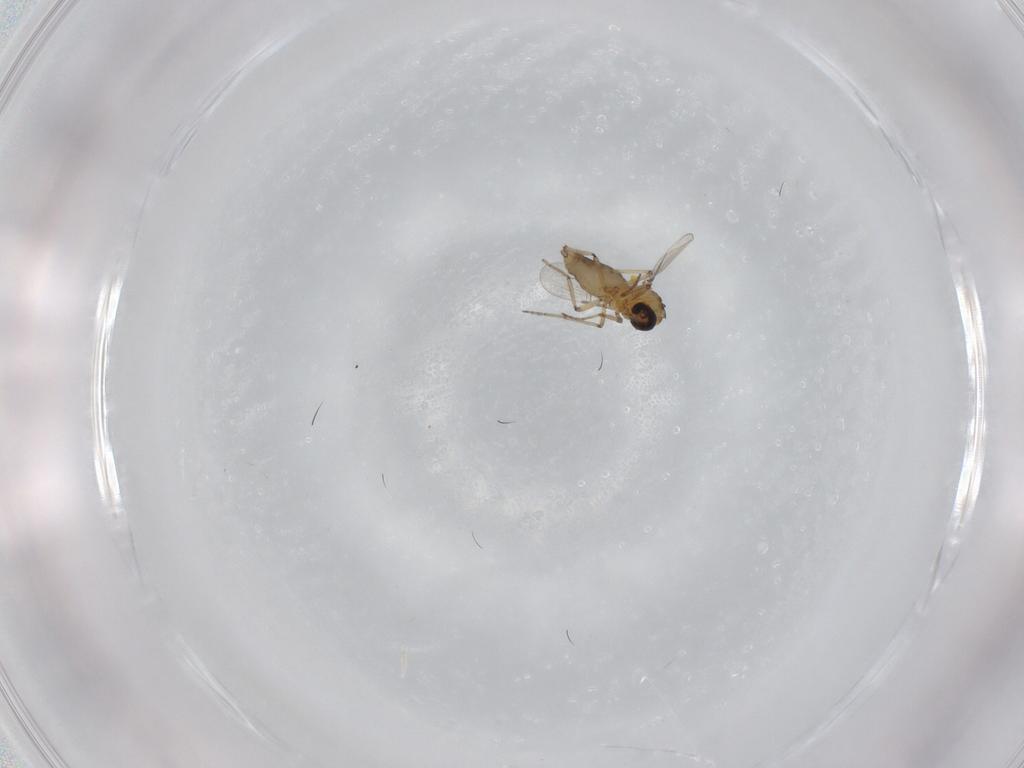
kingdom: Animalia
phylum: Arthropoda
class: Insecta
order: Diptera
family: Ceratopogonidae
